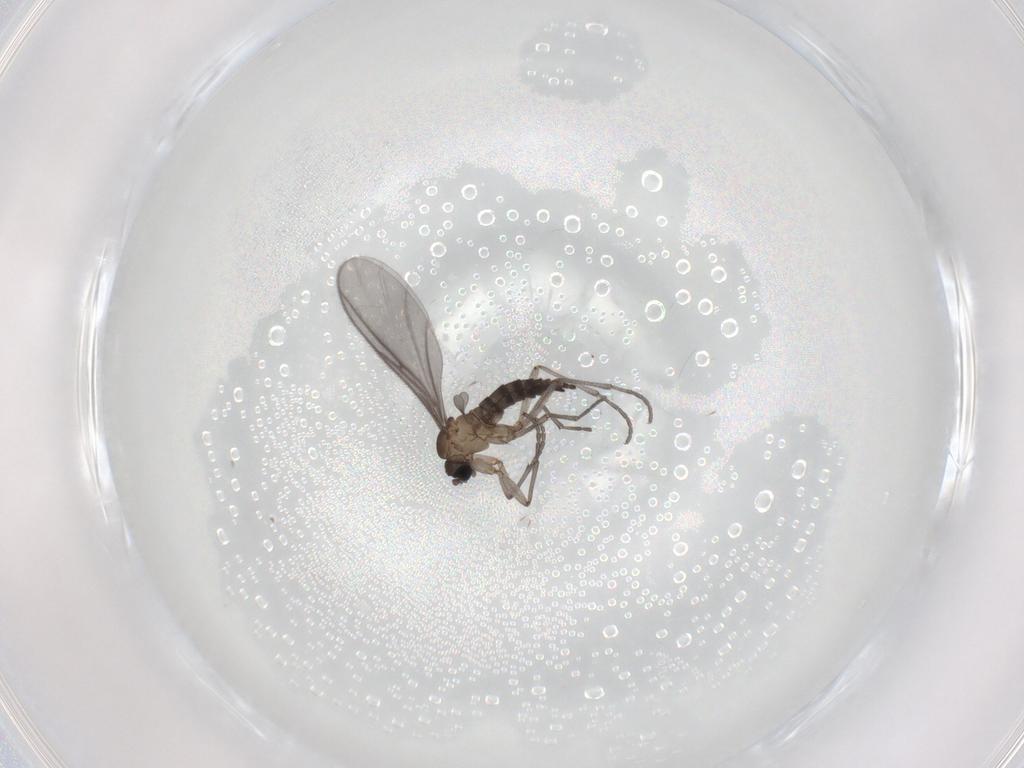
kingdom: Animalia
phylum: Arthropoda
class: Insecta
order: Diptera
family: Sciaridae
